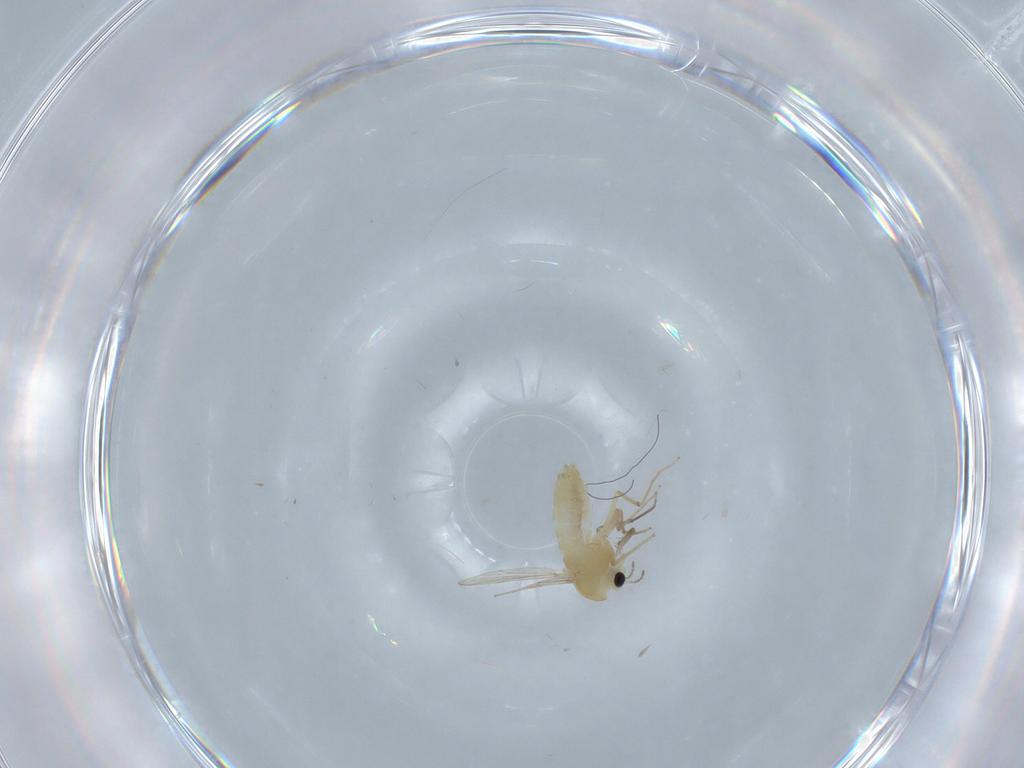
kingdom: Animalia
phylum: Arthropoda
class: Insecta
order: Diptera
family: Chironomidae
